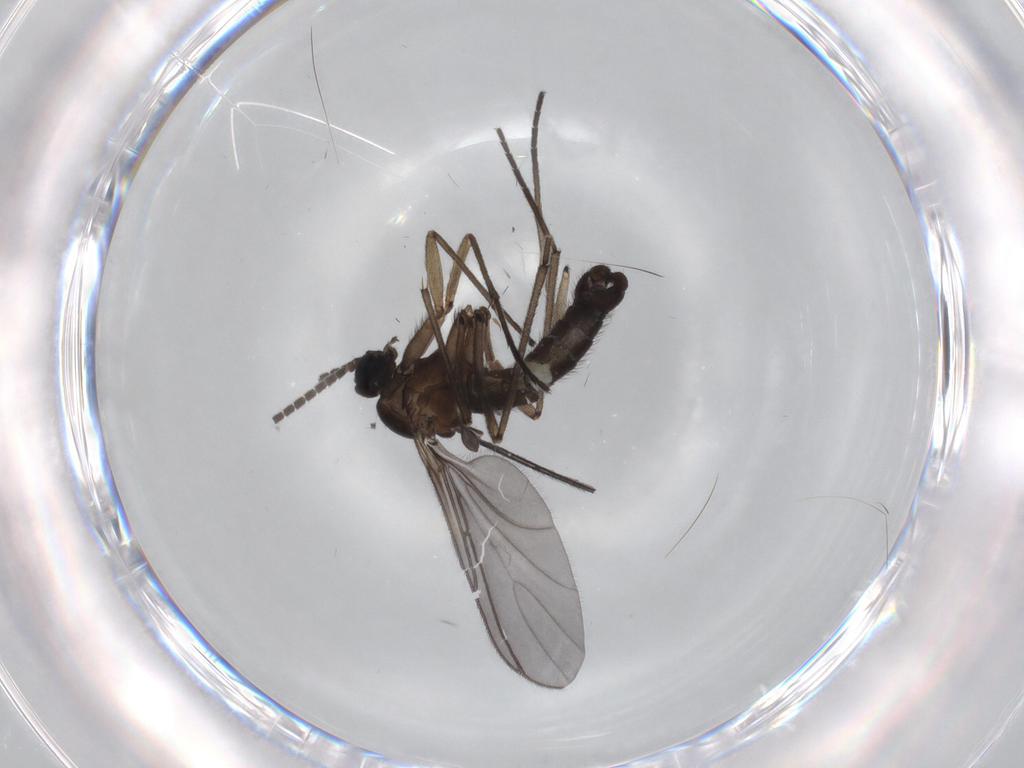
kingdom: Animalia
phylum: Arthropoda
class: Insecta
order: Diptera
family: Sciaridae
